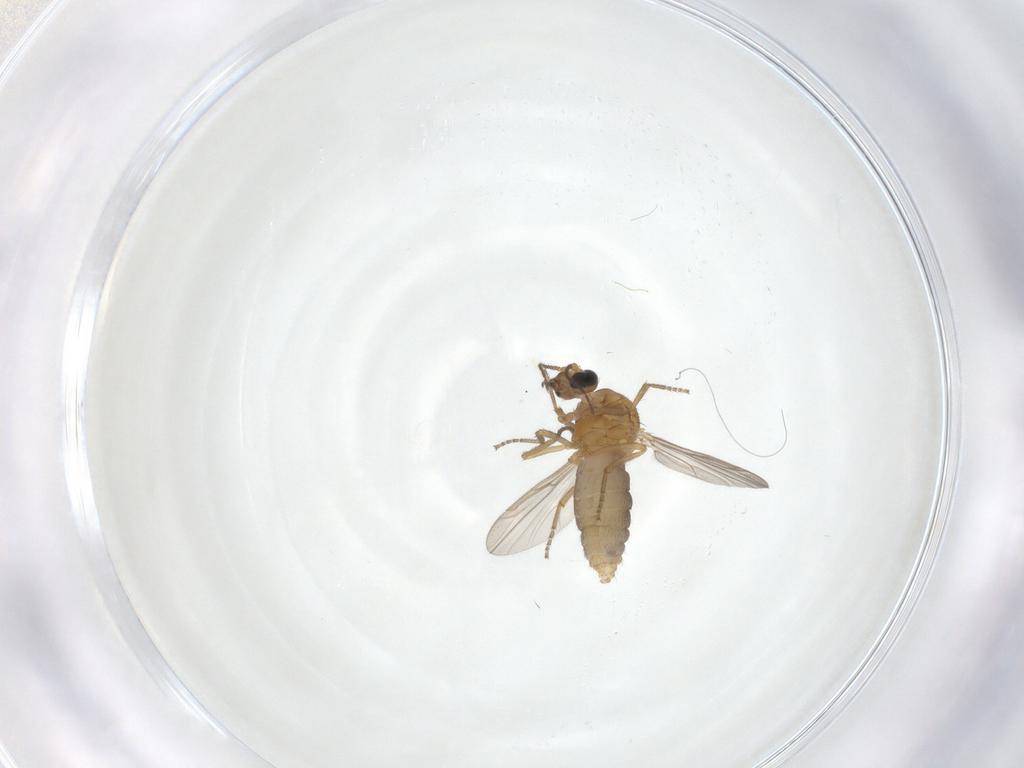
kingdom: Animalia
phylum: Arthropoda
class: Insecta
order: Diptera
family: Ceratopogonidae
